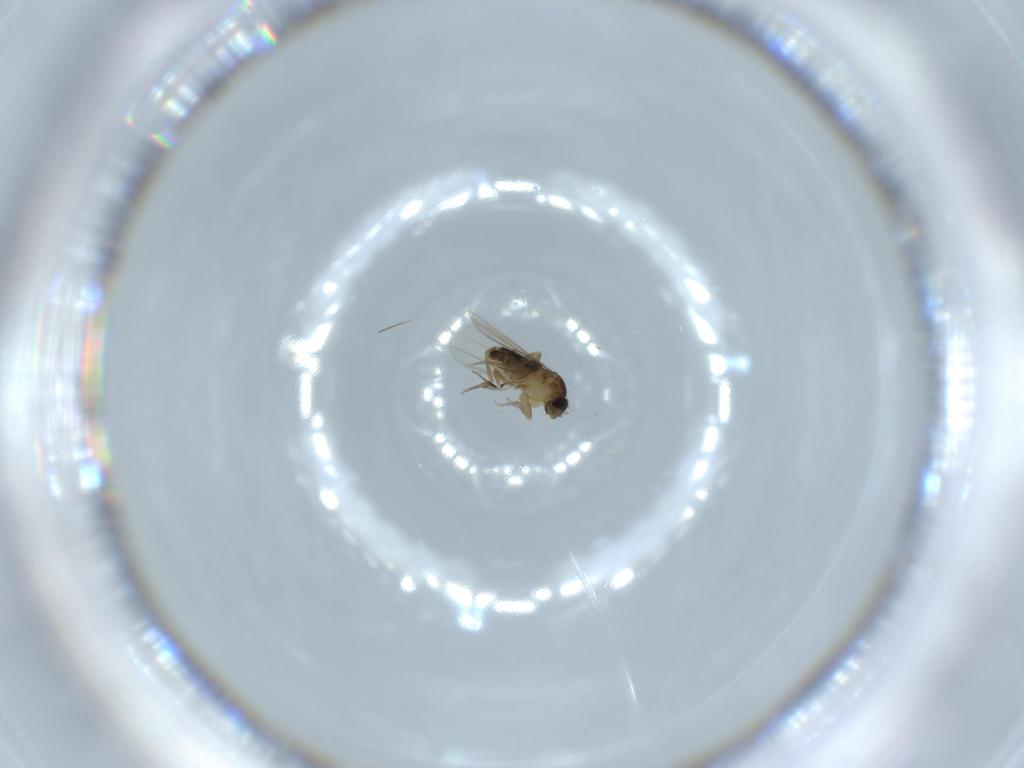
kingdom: Animalia
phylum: Arthropoda
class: Insecta
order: Diptera
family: Phoridae
